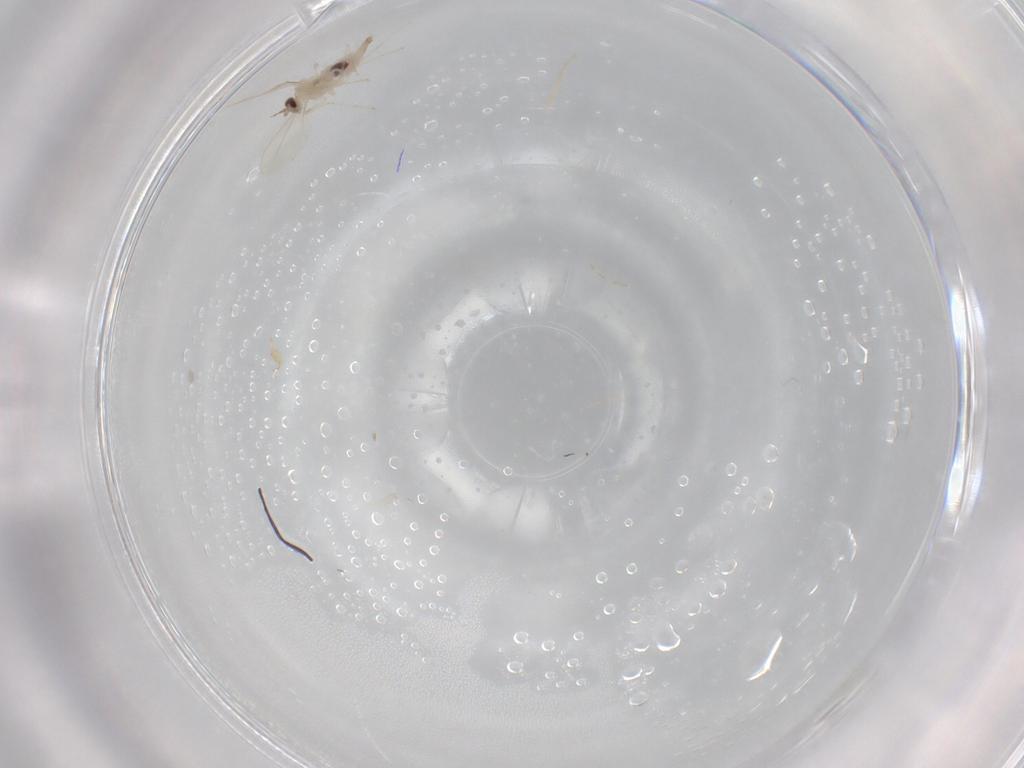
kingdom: Animalia
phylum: Arthropoda
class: Insecta
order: Diptera
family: Cecidomyiidae
